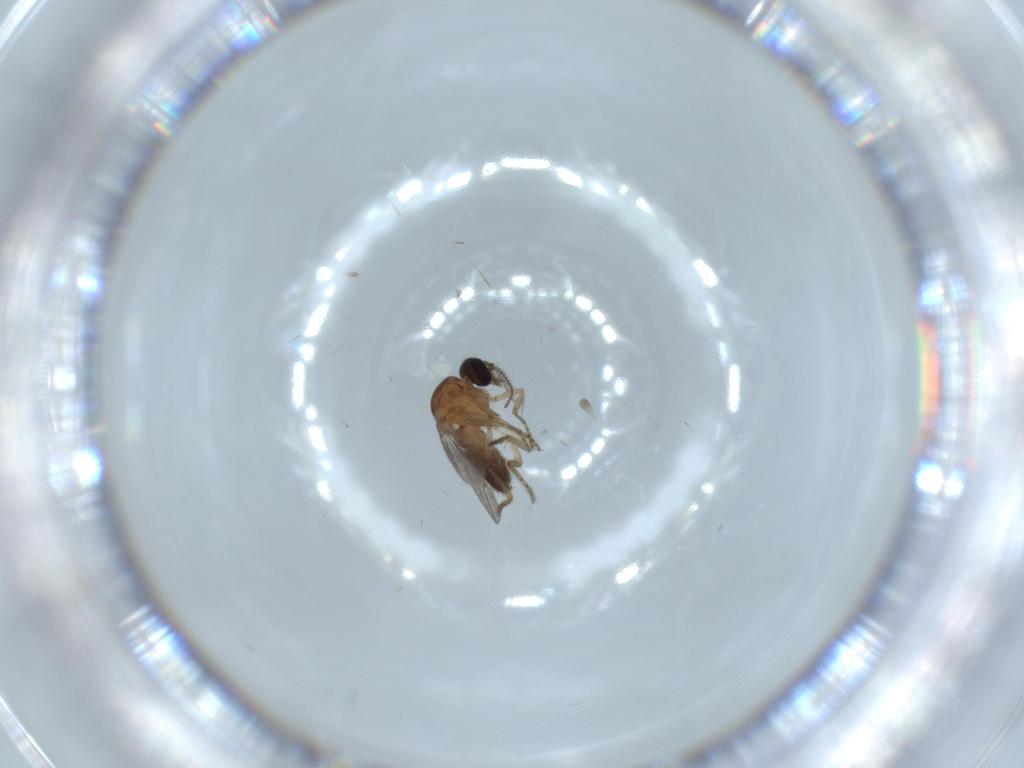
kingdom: Animalia
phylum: Arthropoda
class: Insecta
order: Diptera
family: Ceratopogonidae
